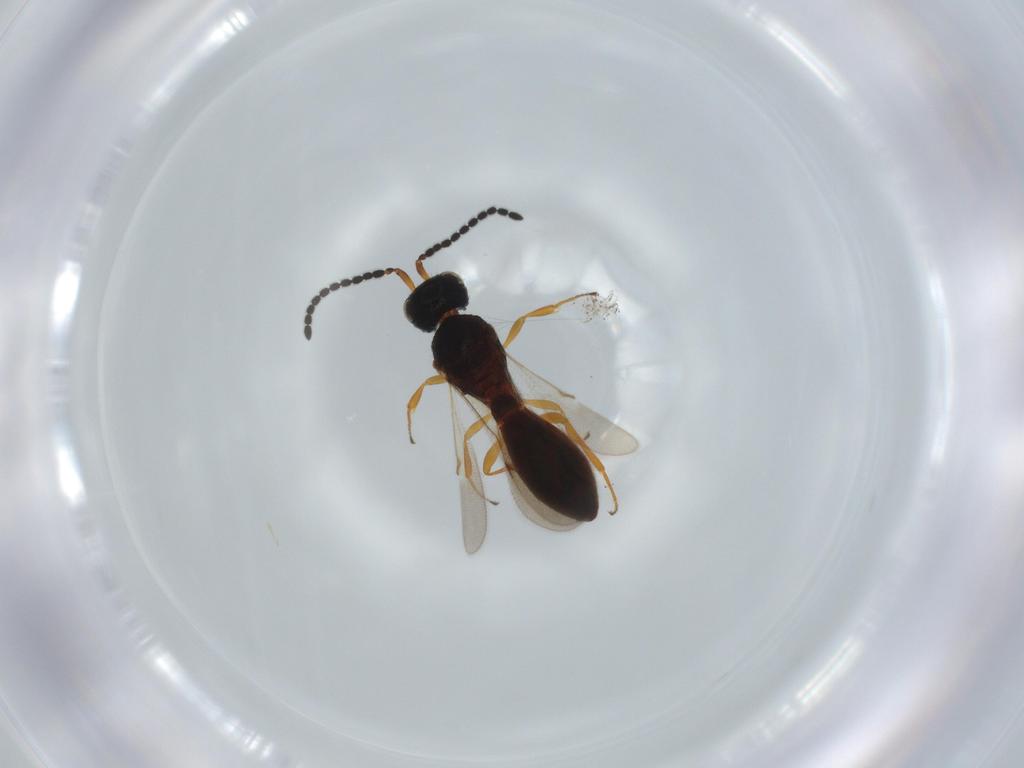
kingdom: Animalia
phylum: Arthropoda
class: Insecta
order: Hymenoptera
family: Scelionidae
